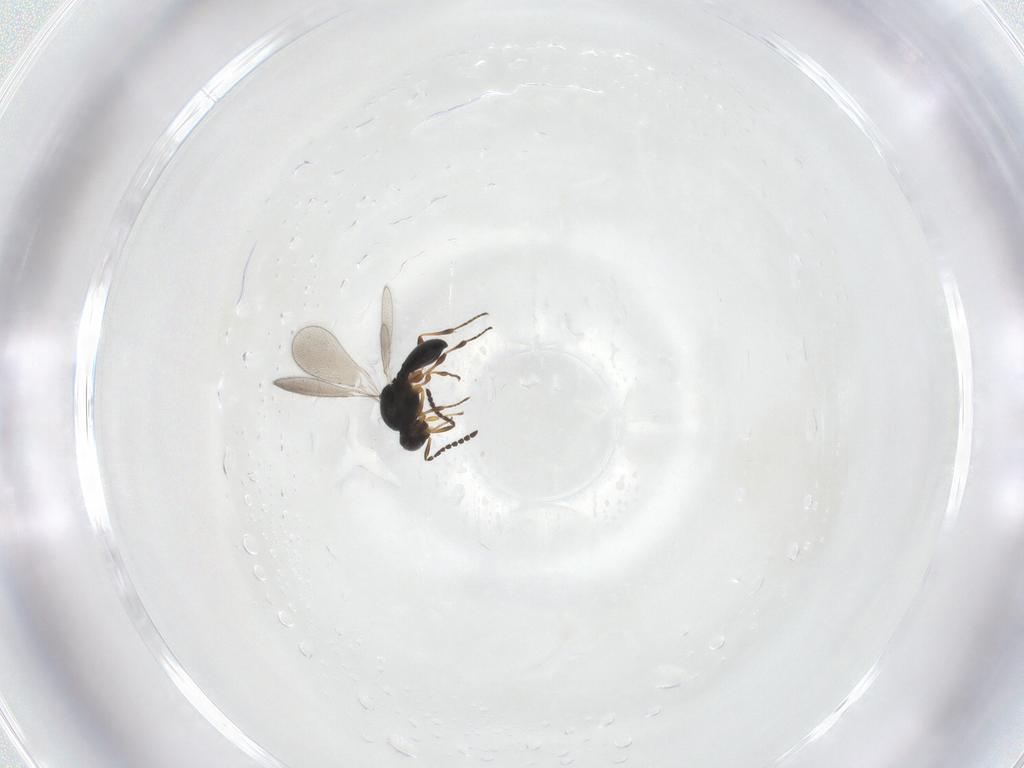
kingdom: Animalia
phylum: Arthropoda
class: Insecta
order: Hymenoptera
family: Platygastridae
